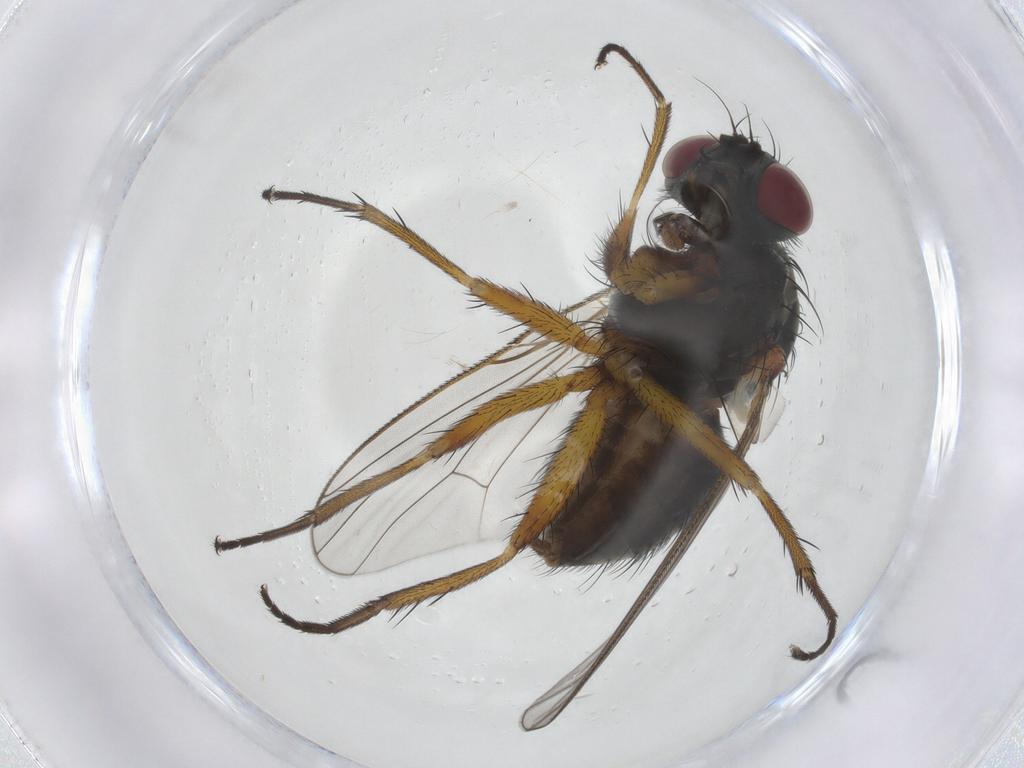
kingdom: Animalia
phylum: Arthropoda
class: Insecta
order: Diptera
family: Muscidae
